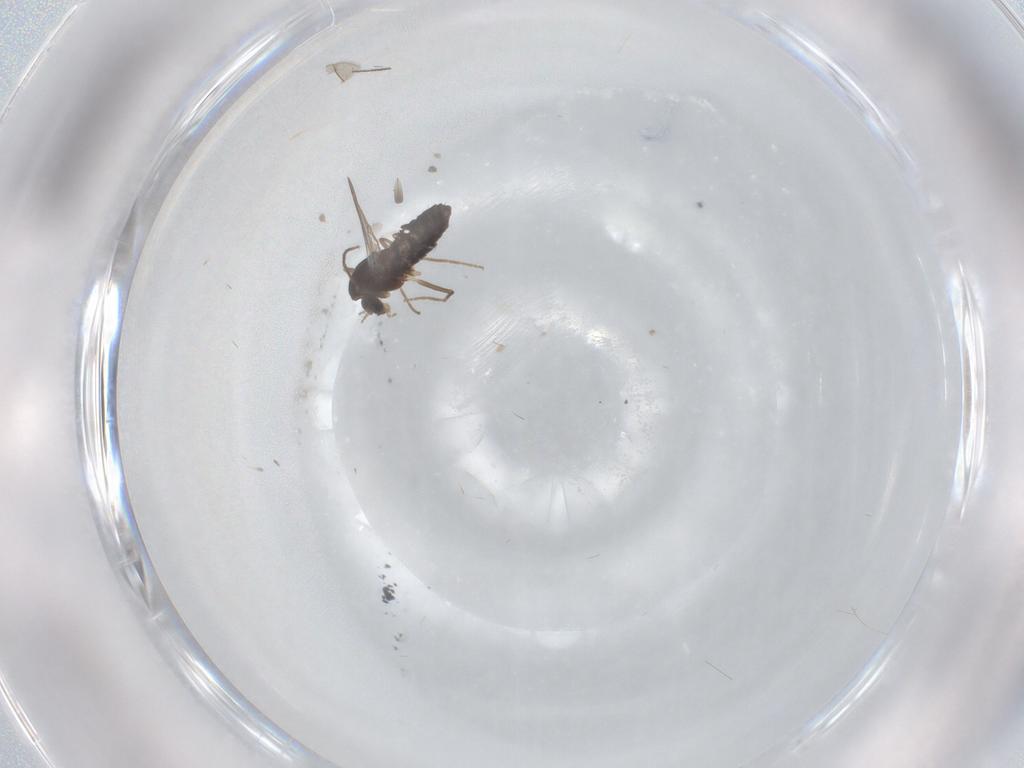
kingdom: Animalia
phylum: Arthropoda
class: Insecta
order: Diptera
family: Chironomidae
